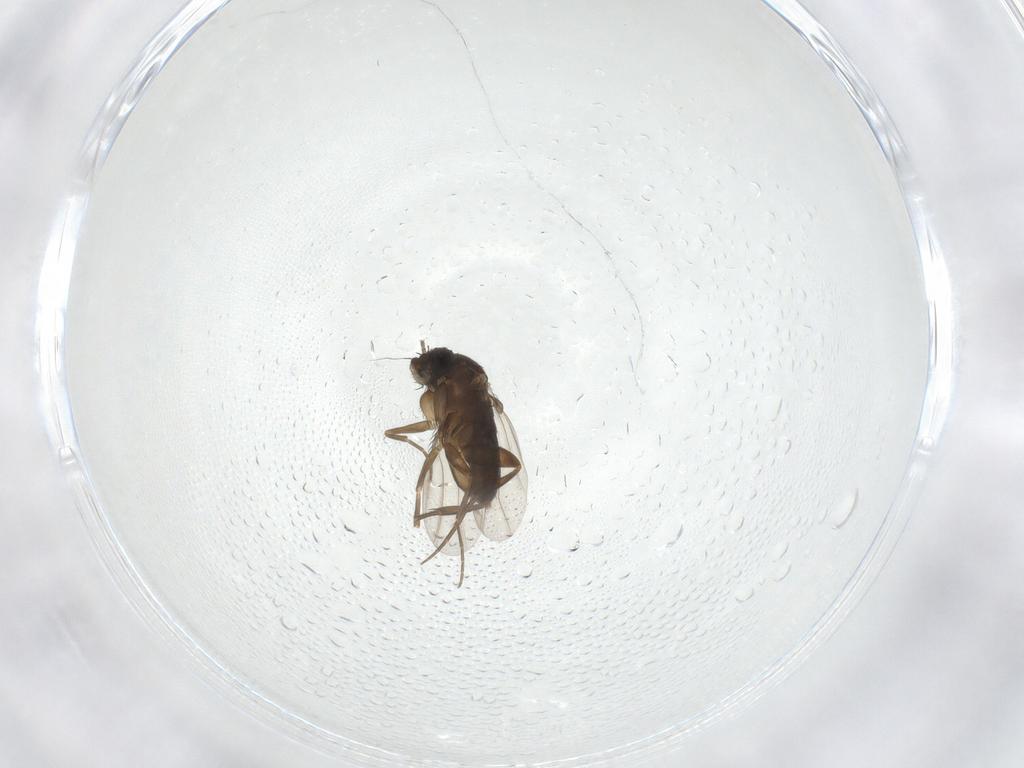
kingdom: Animalia
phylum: Arthropoda
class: Insecta
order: Diptera
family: Phoridae
